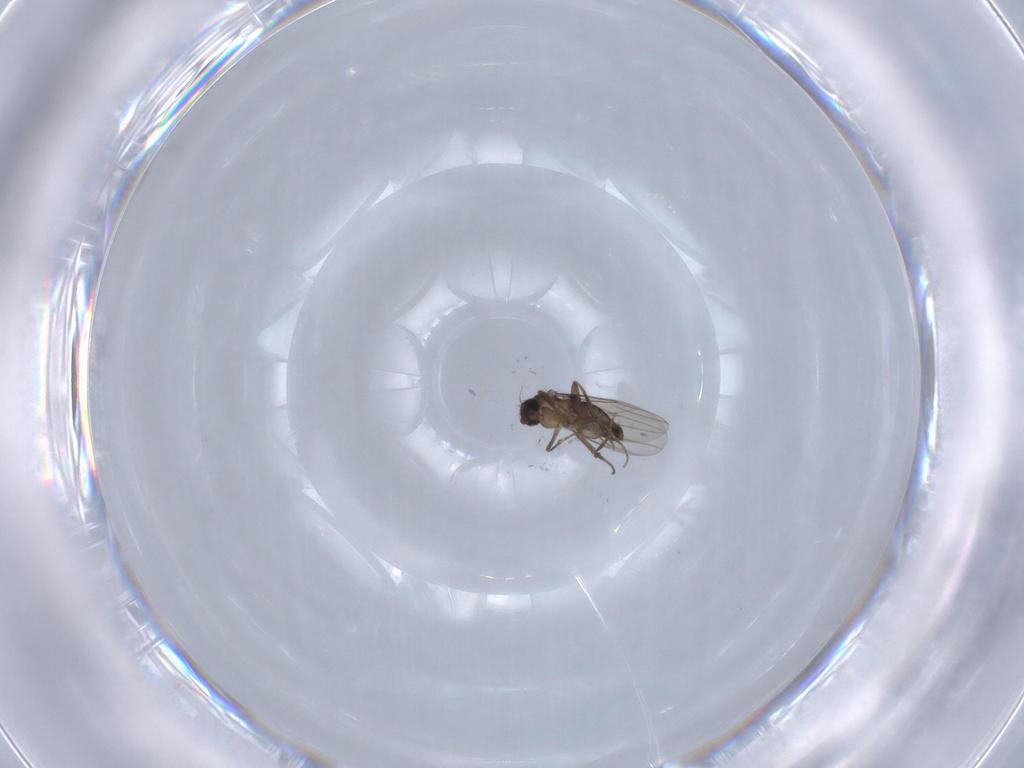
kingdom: Animalia
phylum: Arthropoda
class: Insecta
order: Diptera
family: Phoridae
